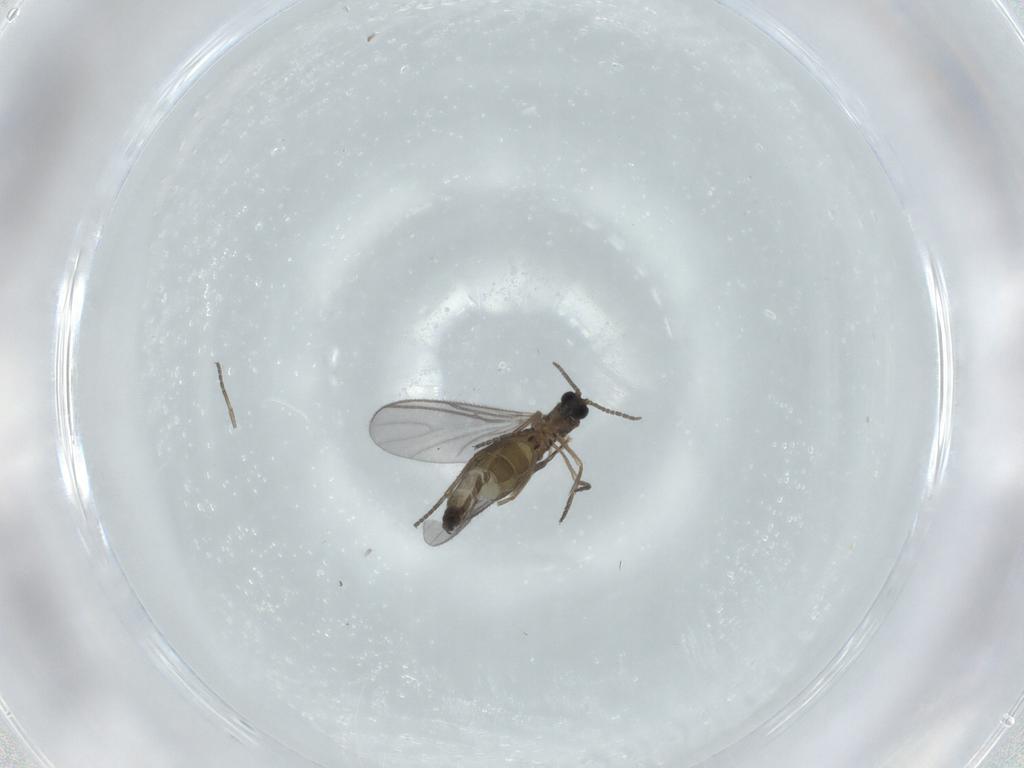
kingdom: Animalia
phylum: Arthropoda
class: Insecta
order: Diptera
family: Sciaridae
